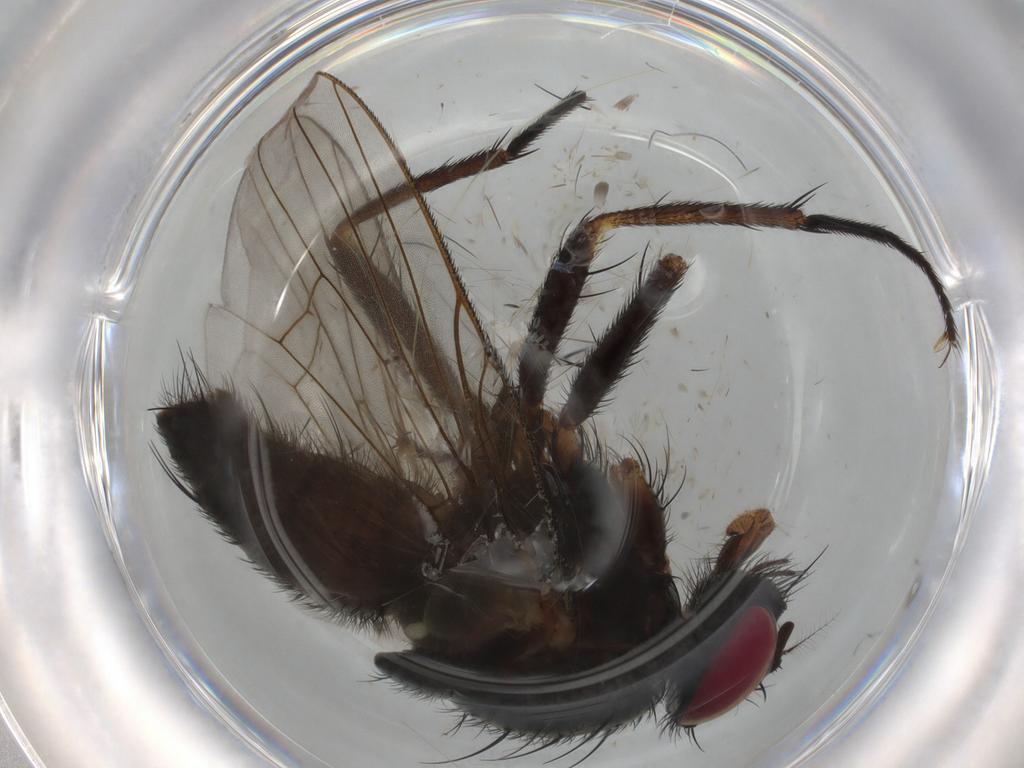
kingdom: Animalia
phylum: Arthropoda
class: Insecta
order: Diptera
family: Muscidae
